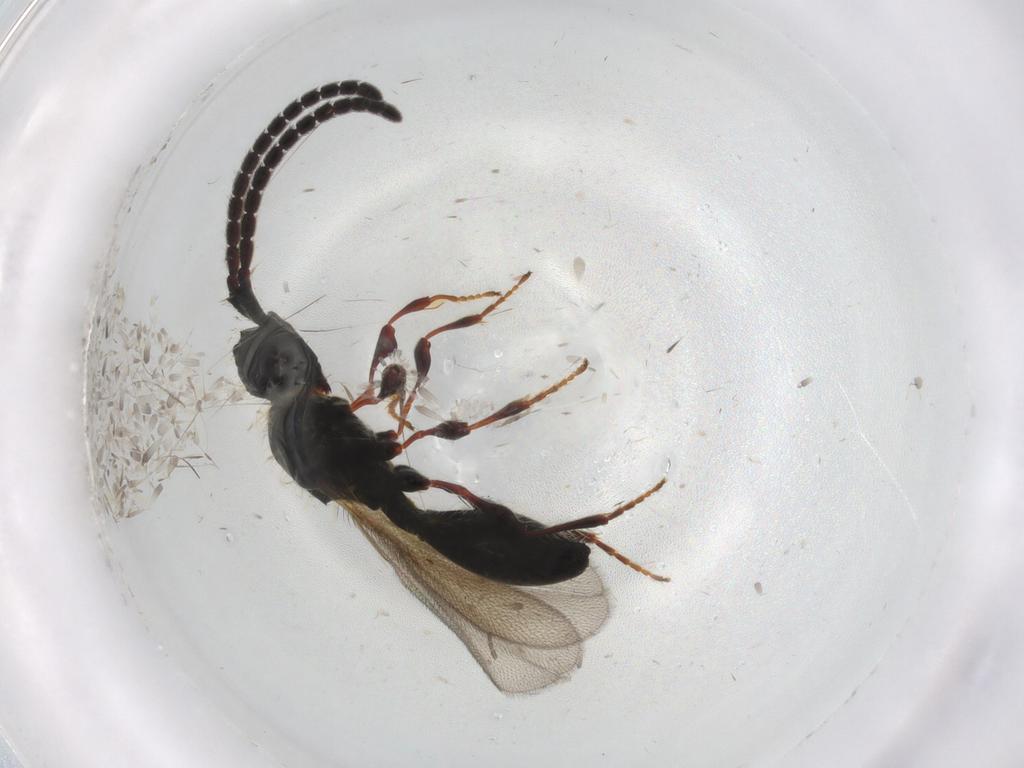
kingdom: Animalia
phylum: Arthropoda
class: Insecta
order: Hymenoptera
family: Diapriidae
